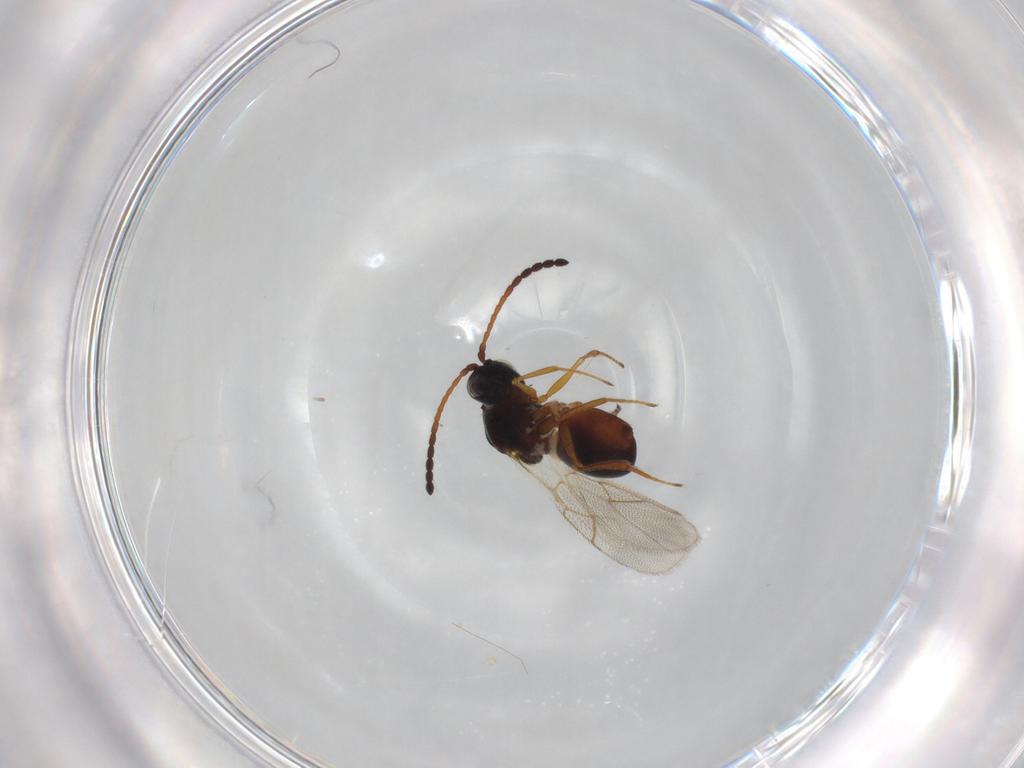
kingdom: Animalia
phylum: Arthropoda
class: Insecta
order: Hymenoptera
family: Figitidae
